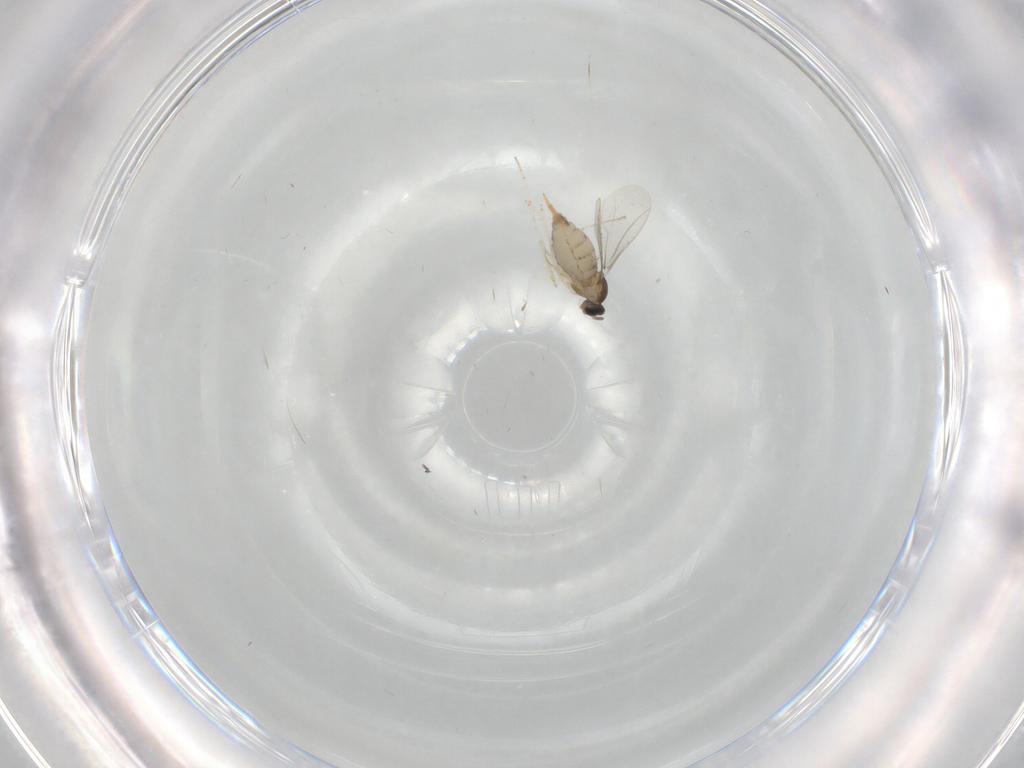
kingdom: Animalia
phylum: Arthropoda
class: Insecta
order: Diptera
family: Cecidomyiidae
